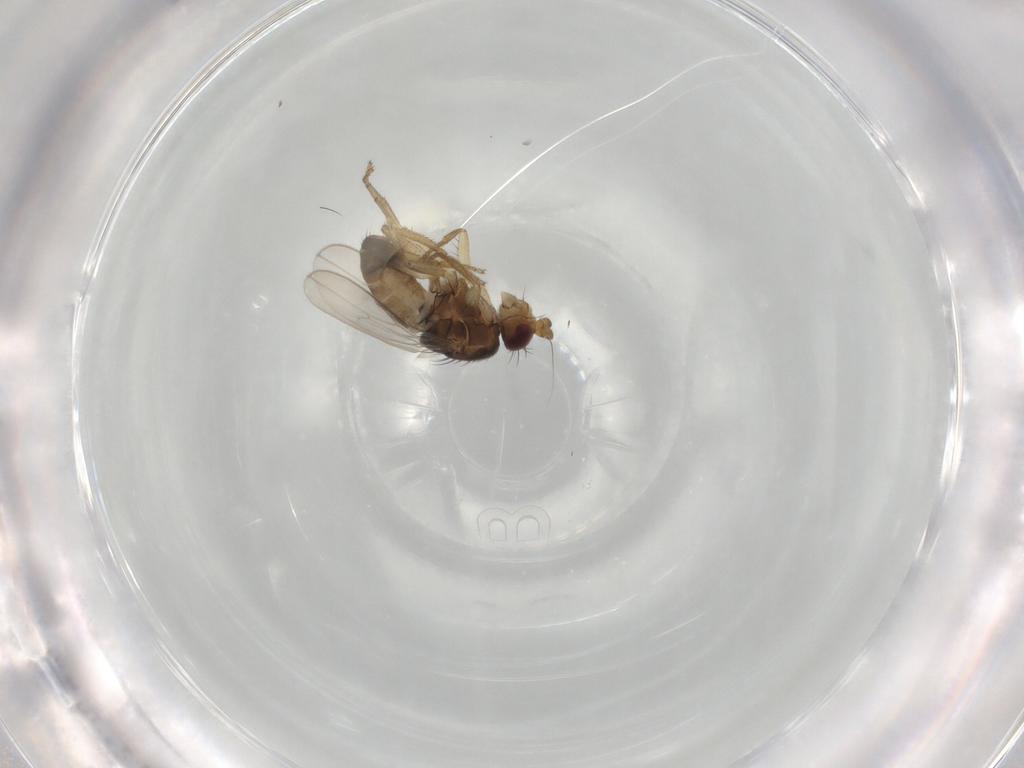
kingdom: Animalia
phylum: Arthropoda
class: Insecta
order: Diptera
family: Sphaeroceridae
